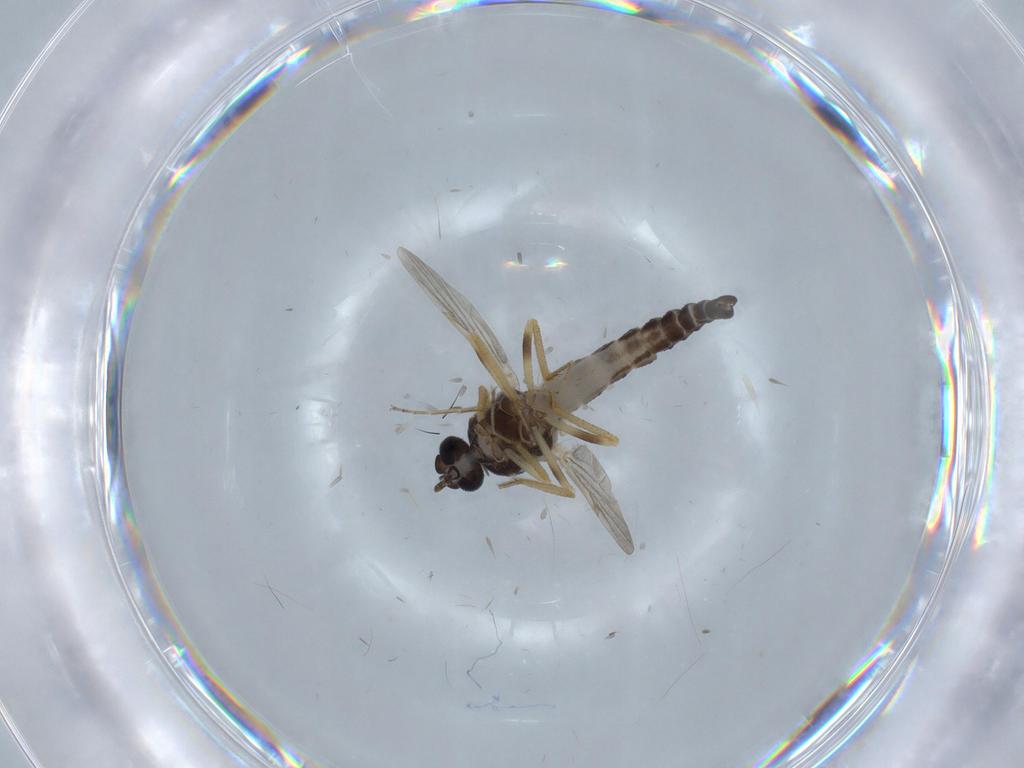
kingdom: Animalia
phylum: Arthropoda
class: Insecta
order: Diptera
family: Ceratopogonidae
